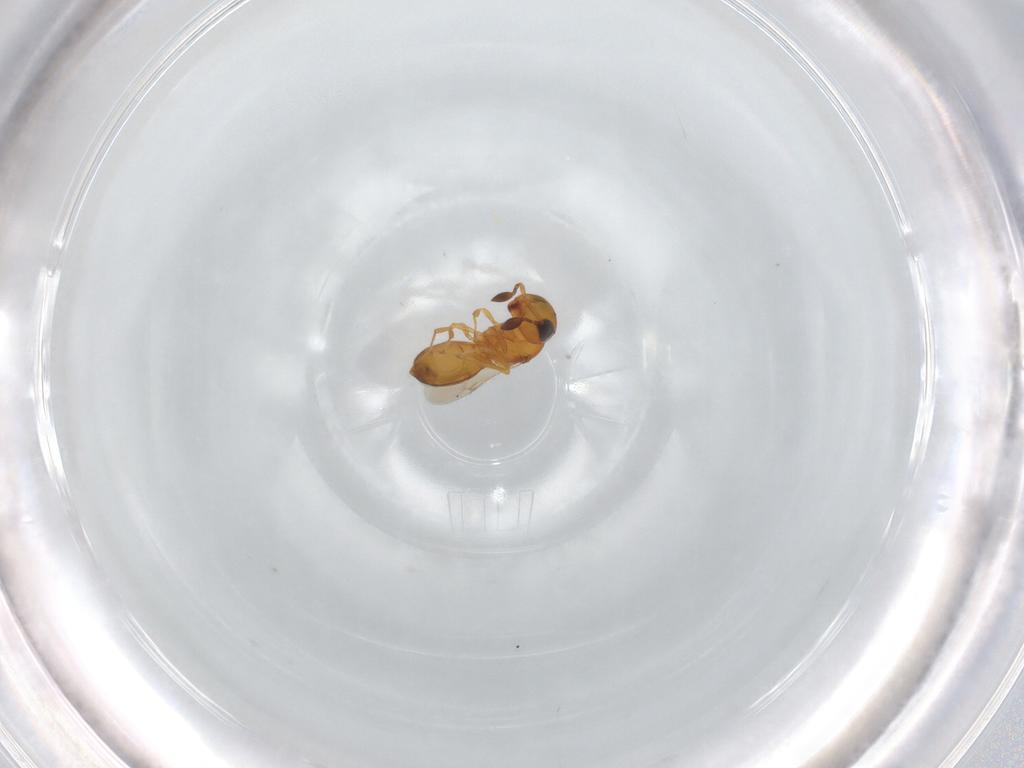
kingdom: Animalia
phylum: Arthropoda
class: Insecta
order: Hymenoptera
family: Scelionidae
